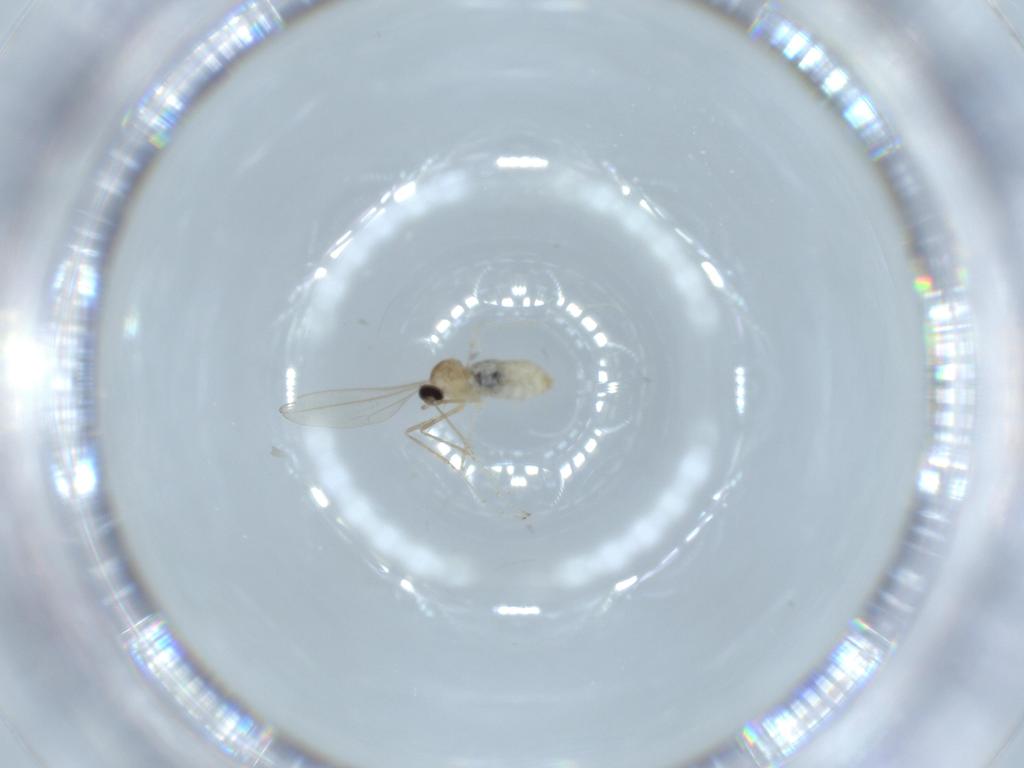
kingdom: Animalia
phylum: Arthropoda
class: Insecta
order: Diptera
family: Cecidomyiidae
